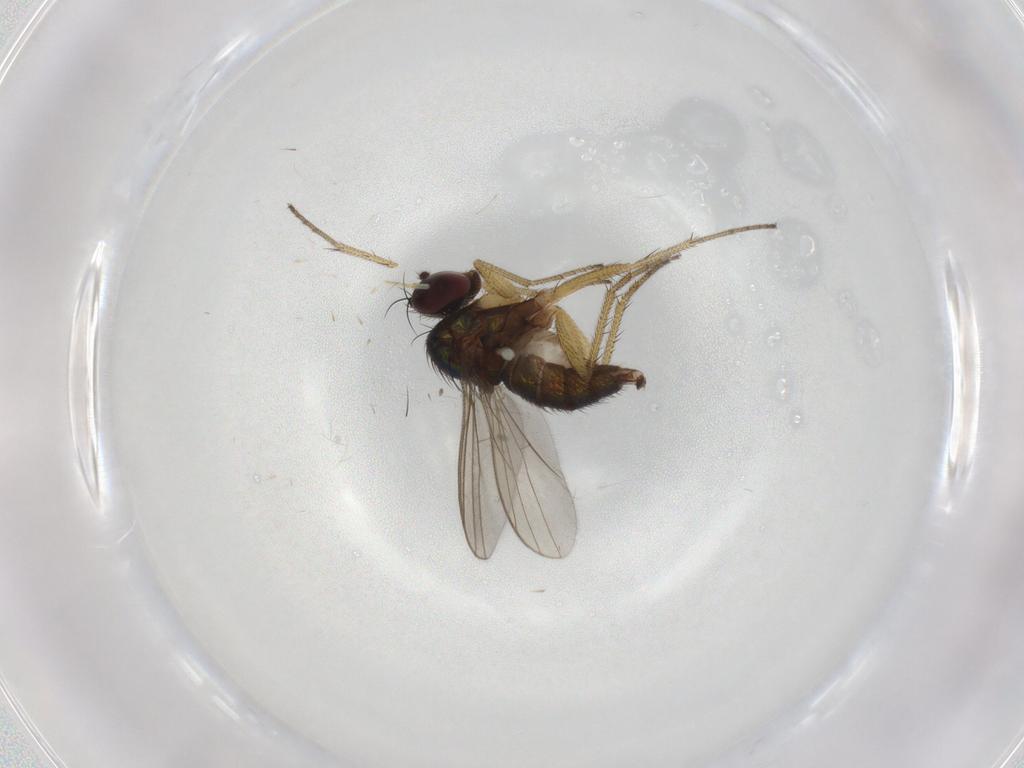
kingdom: Animalia
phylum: Arthropoda
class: Insecta
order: Diptera
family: Dolichopodidae
